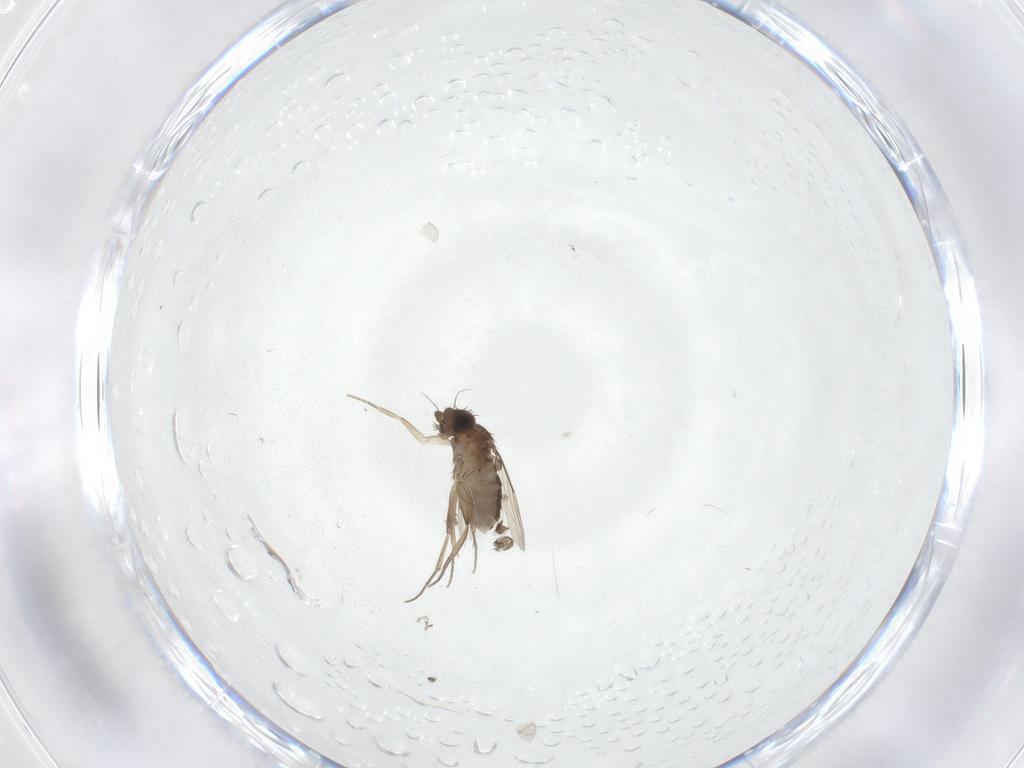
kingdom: Animalia
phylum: Arthropoda
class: Insecta
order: Diptera
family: Phoridae
